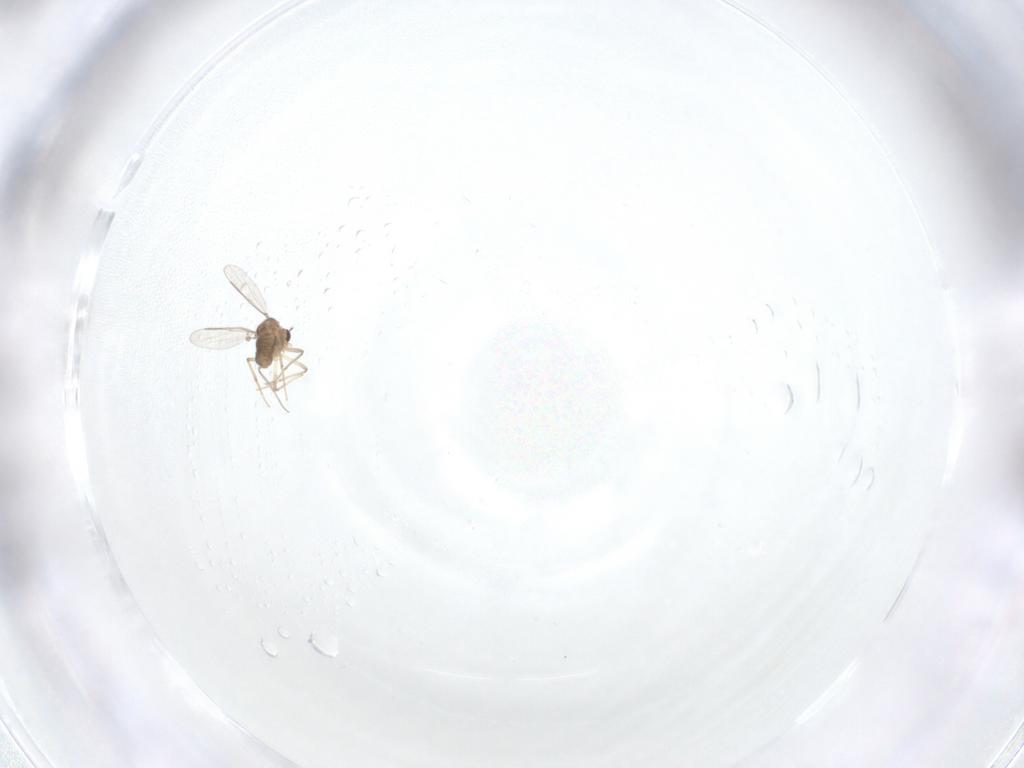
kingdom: Animalia
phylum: Arthropoda
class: Insecta
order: Diptera
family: Chironomidae
